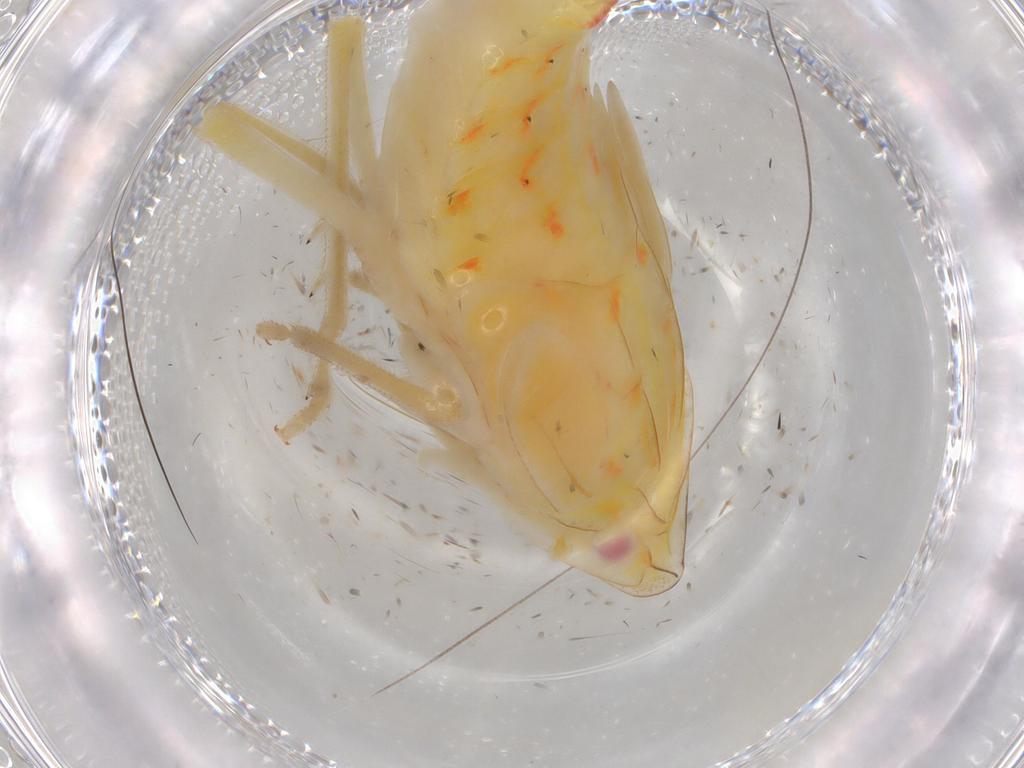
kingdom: Animalia
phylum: Arthropoda
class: Insecta
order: Hemiptera
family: Tropiduchidae
